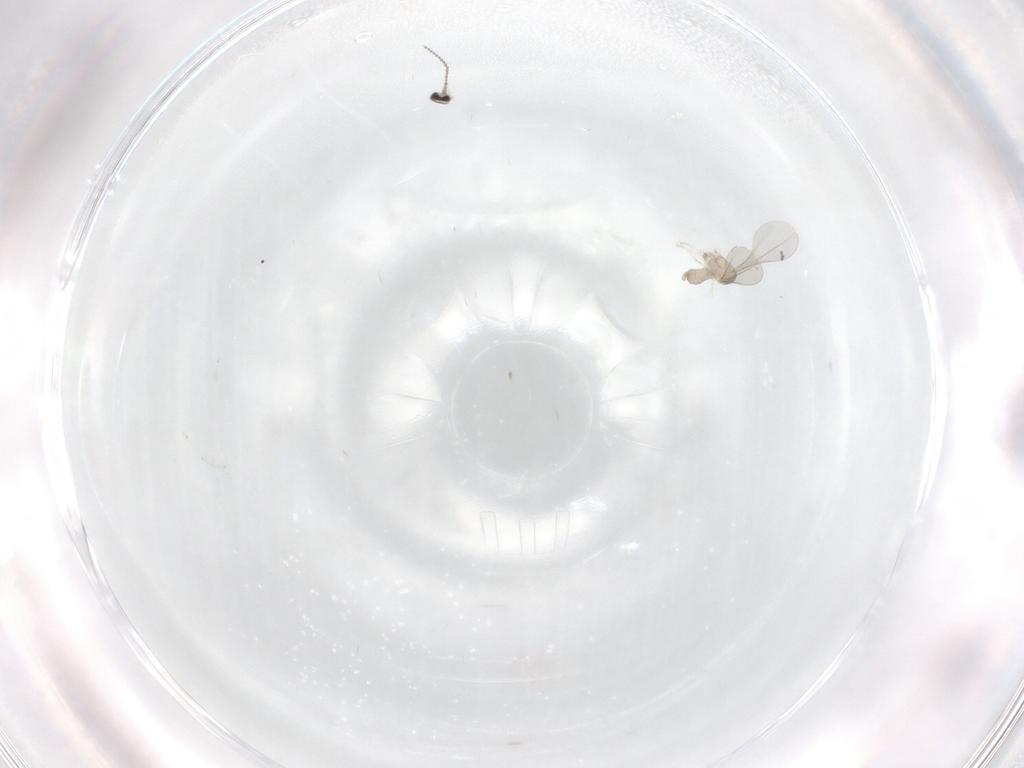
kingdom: Animalia
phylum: Arthropoda
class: Insecta
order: Diptera
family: Cecidomyiidae
